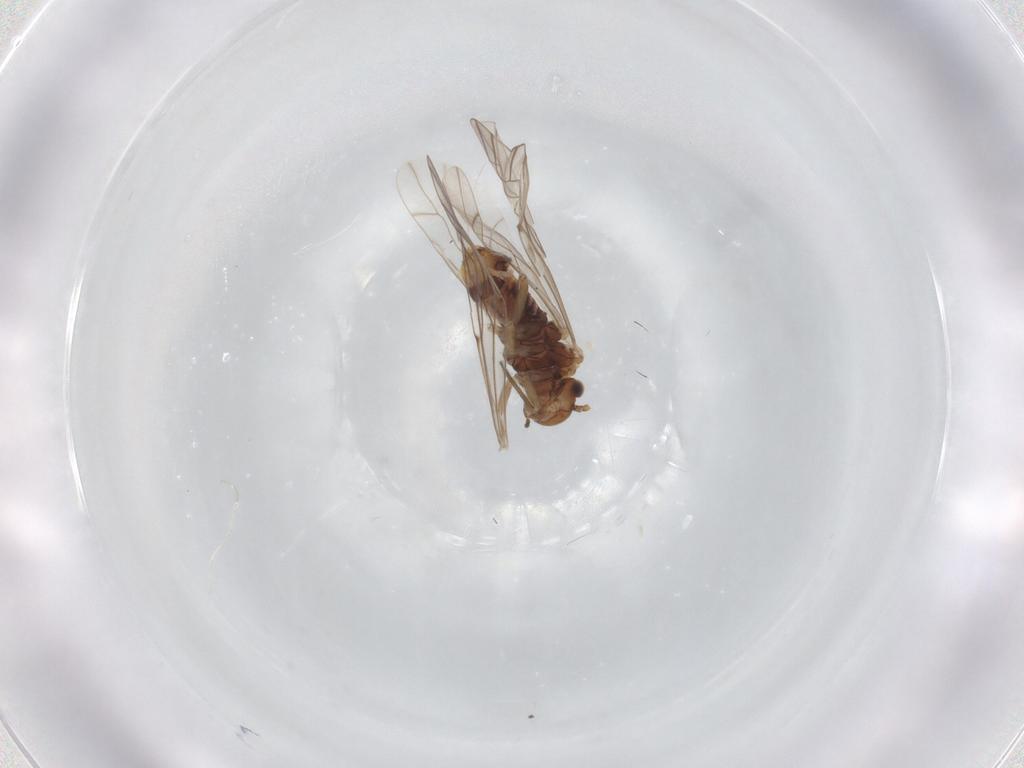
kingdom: Animalia
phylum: Arthropoda
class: Insecta
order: Psocodea
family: Lachesillidae
